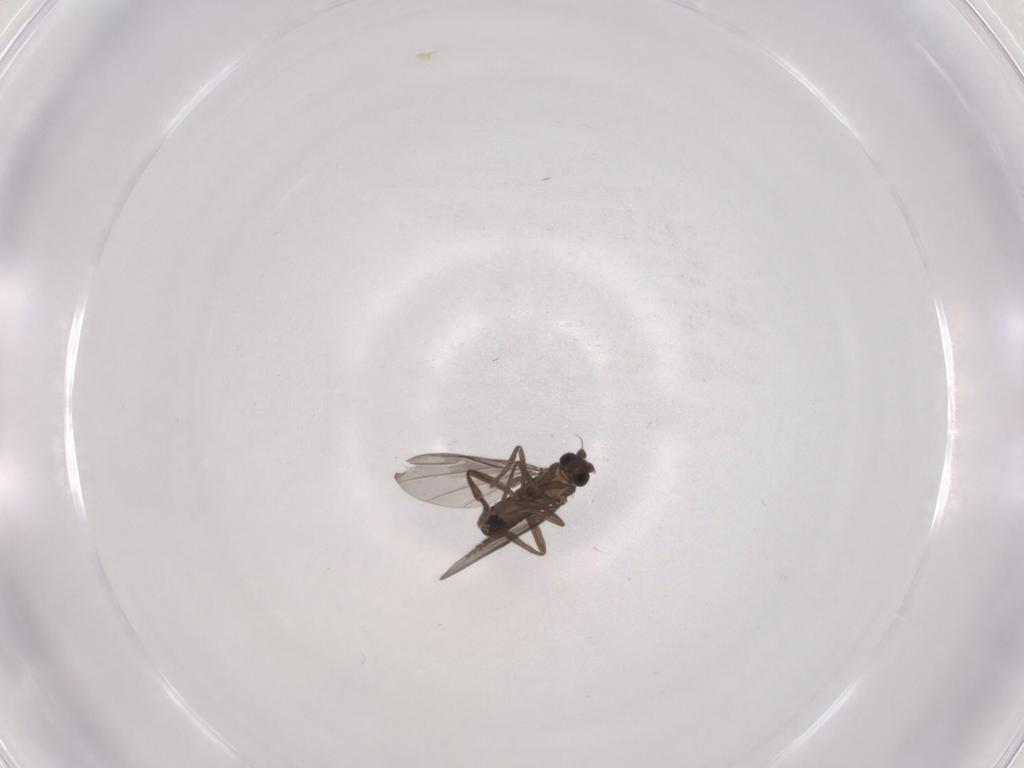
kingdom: Animalia
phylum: Arthropoda
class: Insecta
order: Diptera
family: Phoridae
